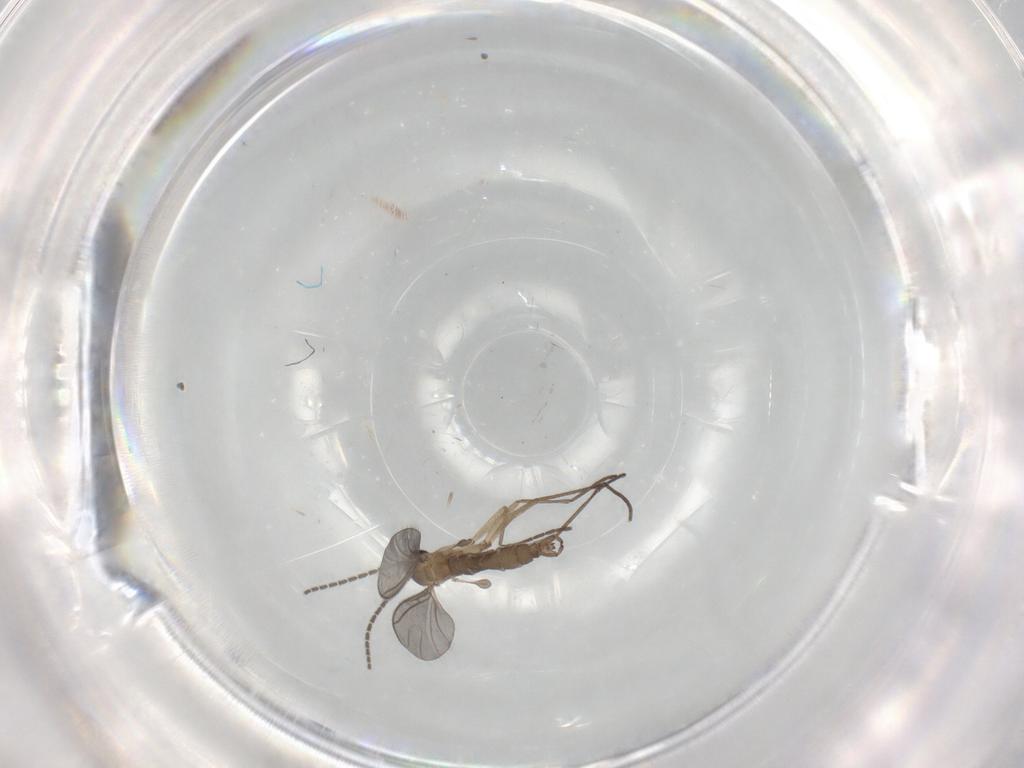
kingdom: Animalia
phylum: Arthropoda
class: Insecta
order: Diptera
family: Sciaridae
